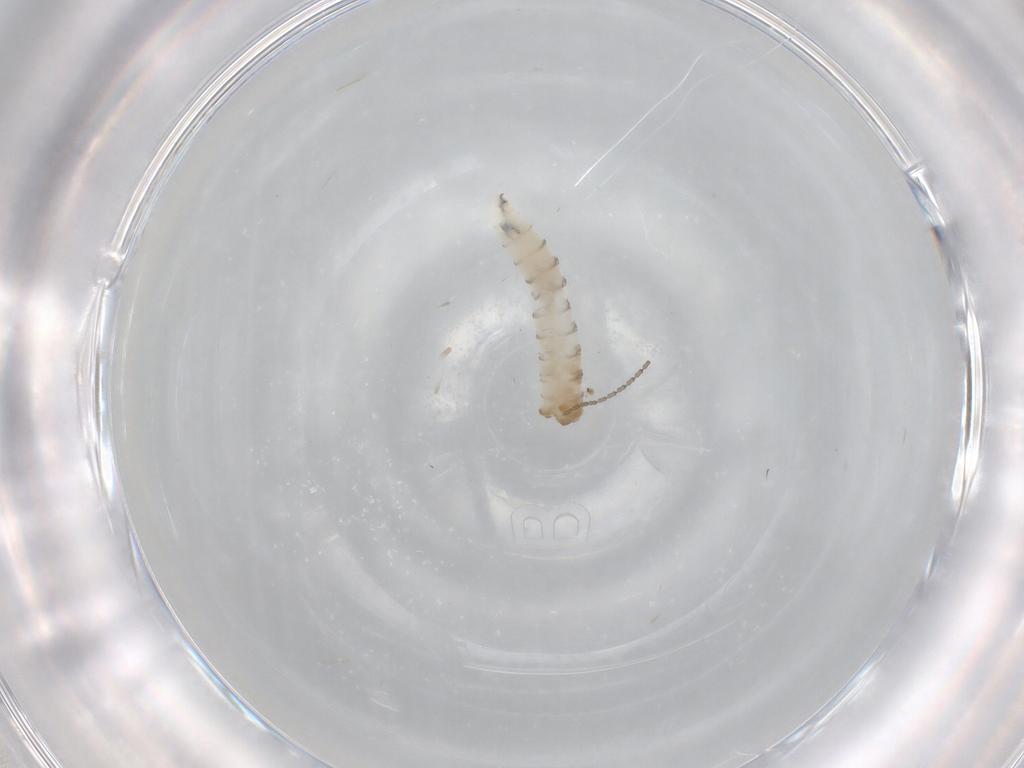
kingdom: Animalia
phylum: Arthropoda
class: Insecta
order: Diptera
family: Sarcophagidae
